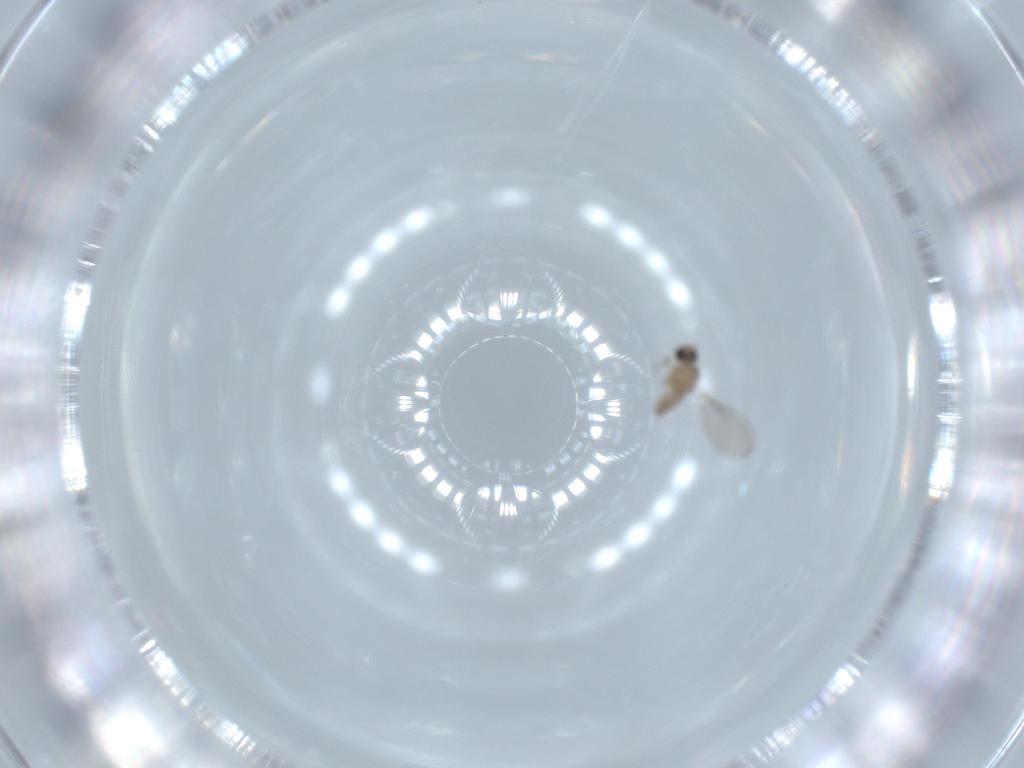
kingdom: Animalia
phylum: Arthropoda
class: Insecta
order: Diptera
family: Cecidomyiidae
